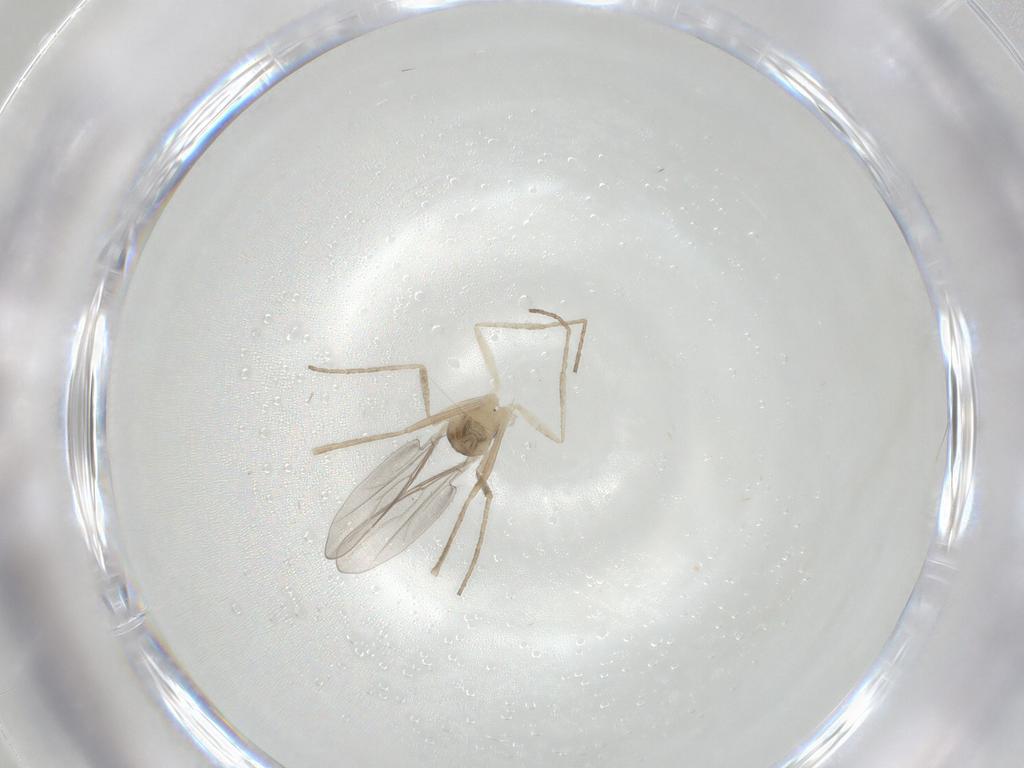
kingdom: Animalia
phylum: Arthropoda
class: Insecta
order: Diptera
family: Cecidomyiidae
